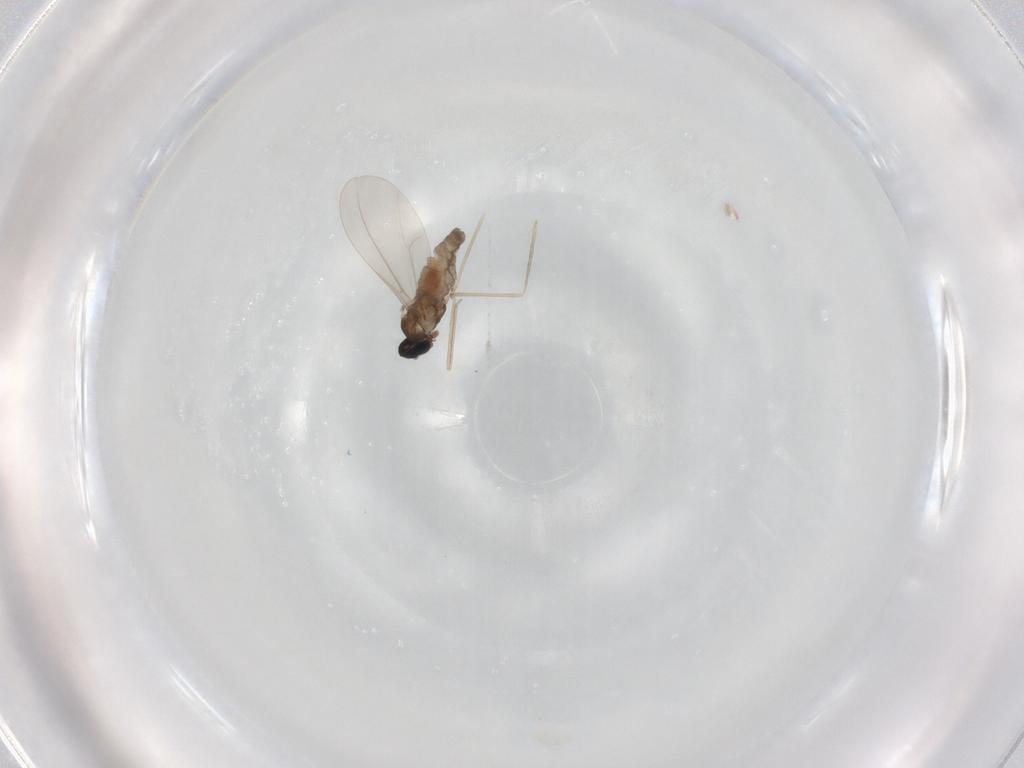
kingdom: Animalia
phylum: Arthropoda
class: Insecta
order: Diptera
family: Cecidomyiidae
